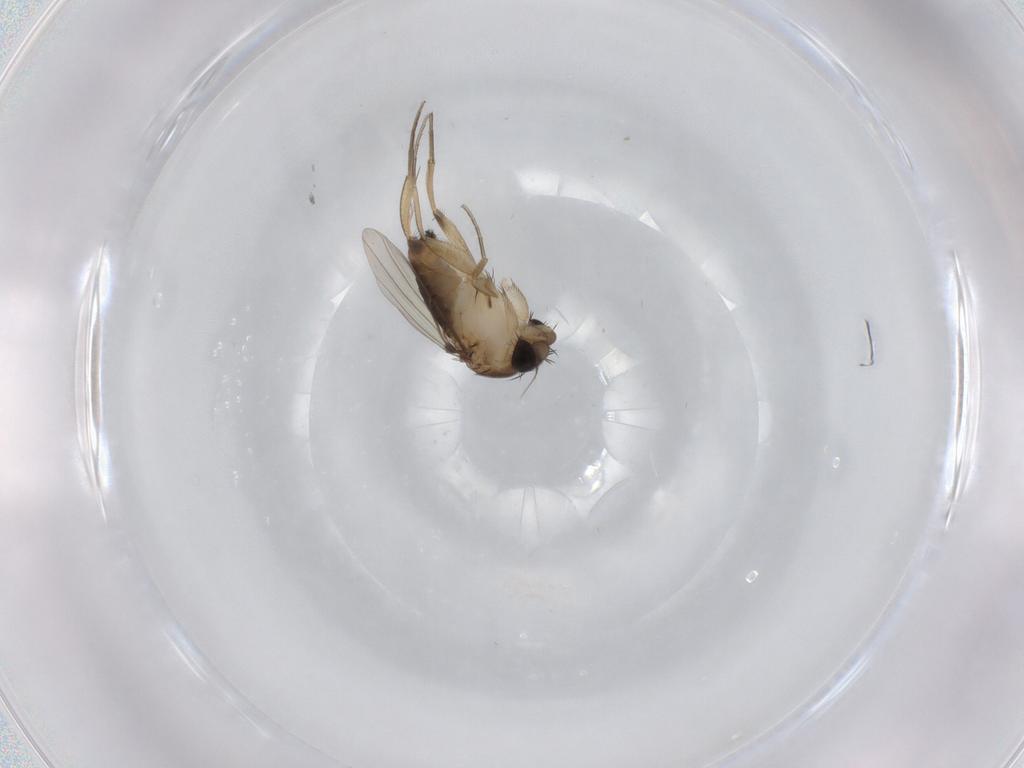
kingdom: Animalia
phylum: Arthropoda
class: Insecta
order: Diptera
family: Phoridae
